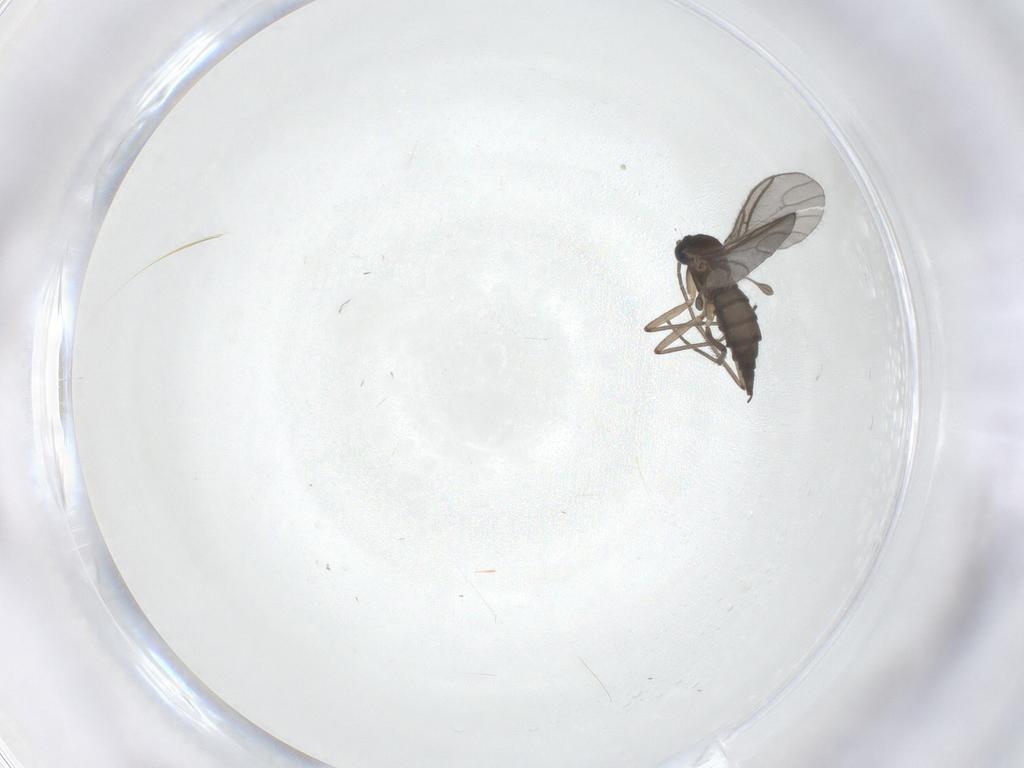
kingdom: Animalia
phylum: Arthropoda
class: Insecta
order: Diptera
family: Sciaridae
